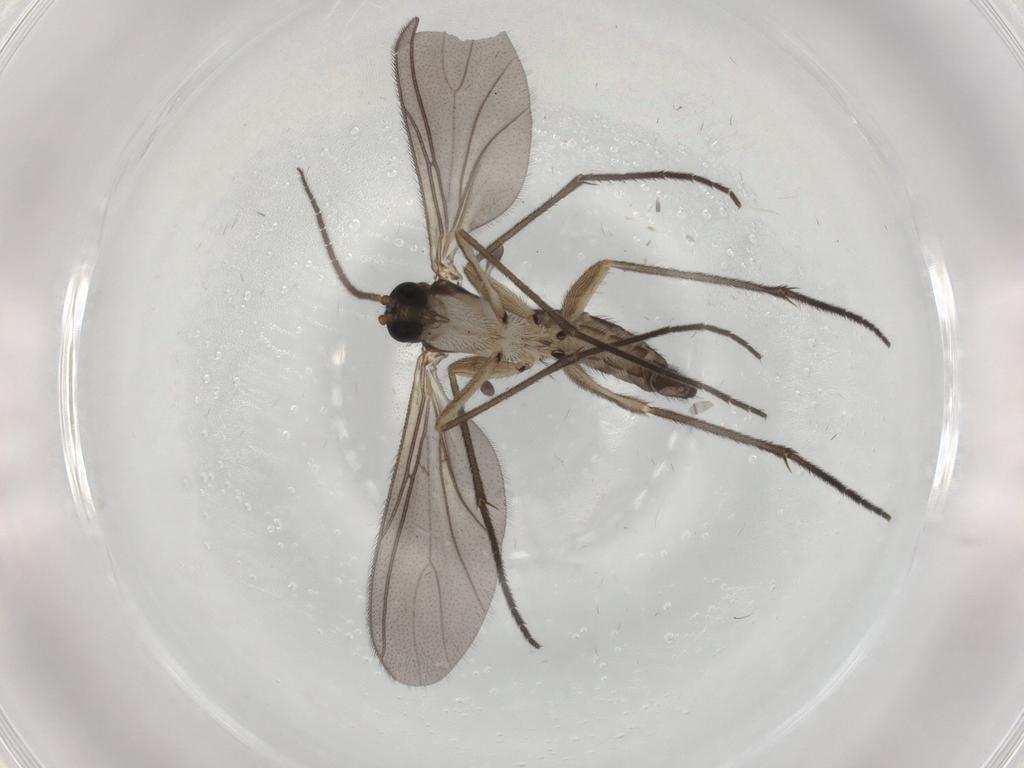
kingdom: Animalia
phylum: Arthropoda
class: Insecta
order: Diptera
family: Sciaridae
